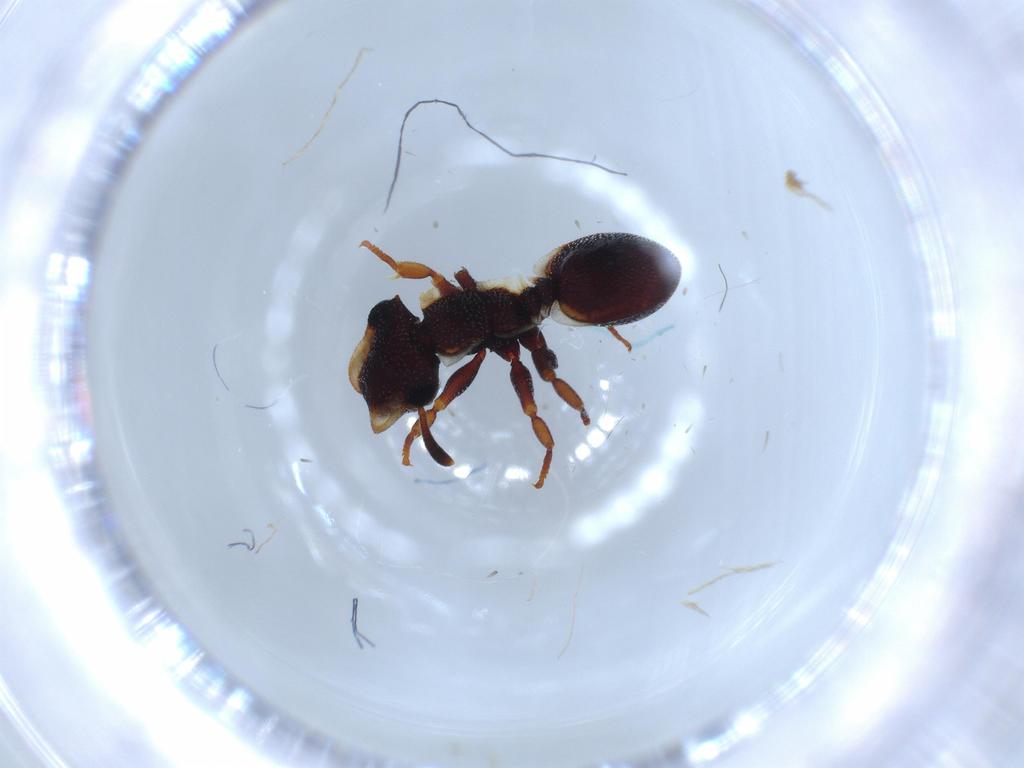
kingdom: Animalia
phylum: Arthropoda
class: Insecta
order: Hymenoptera
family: Formicidae
